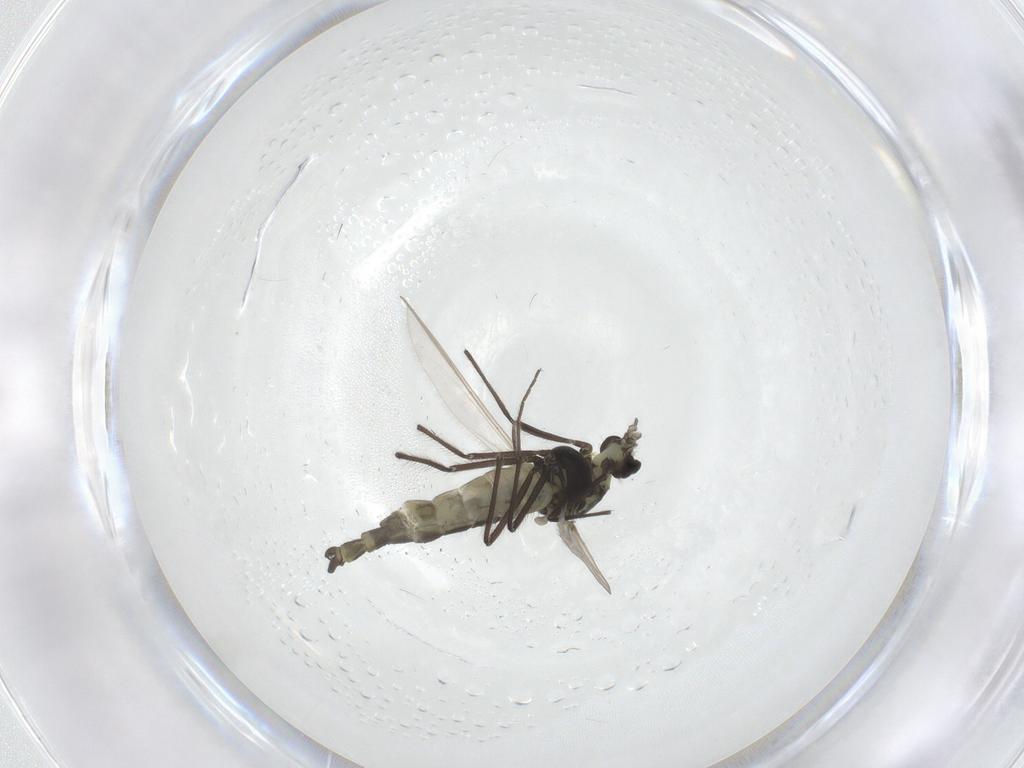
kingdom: Animalia
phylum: Arthropoda
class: Insecta
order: Diptera
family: Chironomidae
